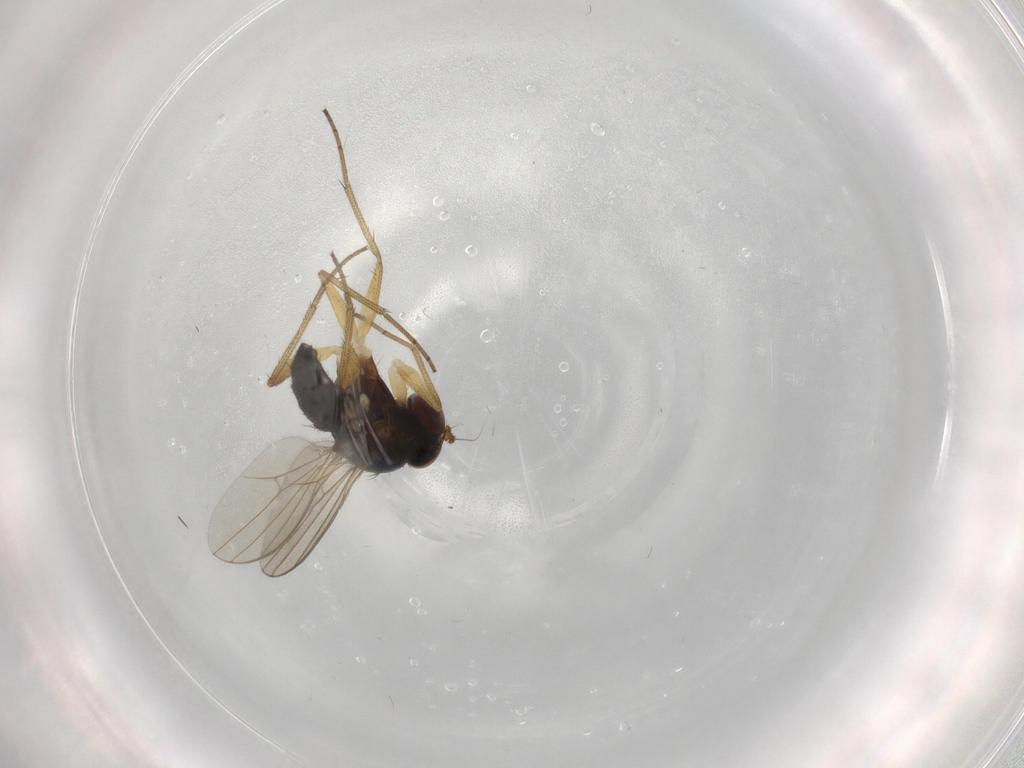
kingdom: Animalia
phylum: Arthropoda
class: Insecta
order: Diptera
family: Dolichopodidae
